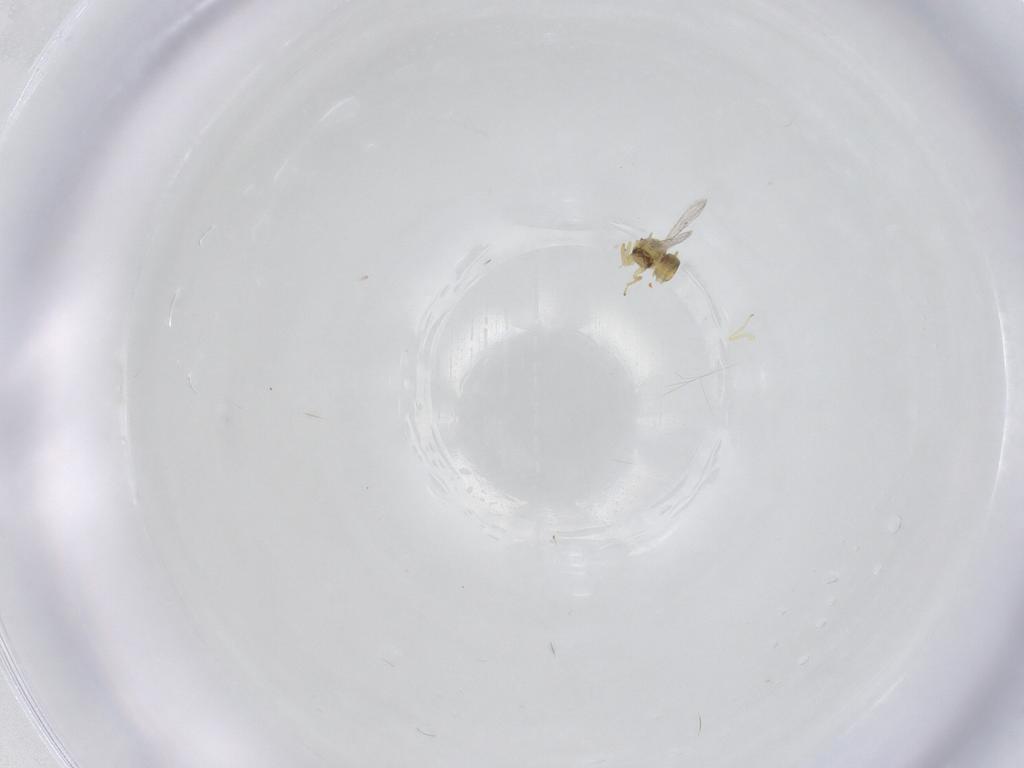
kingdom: Animalia
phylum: Arthropoda
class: Insecta
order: Hymenoptera
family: Eulophidae
